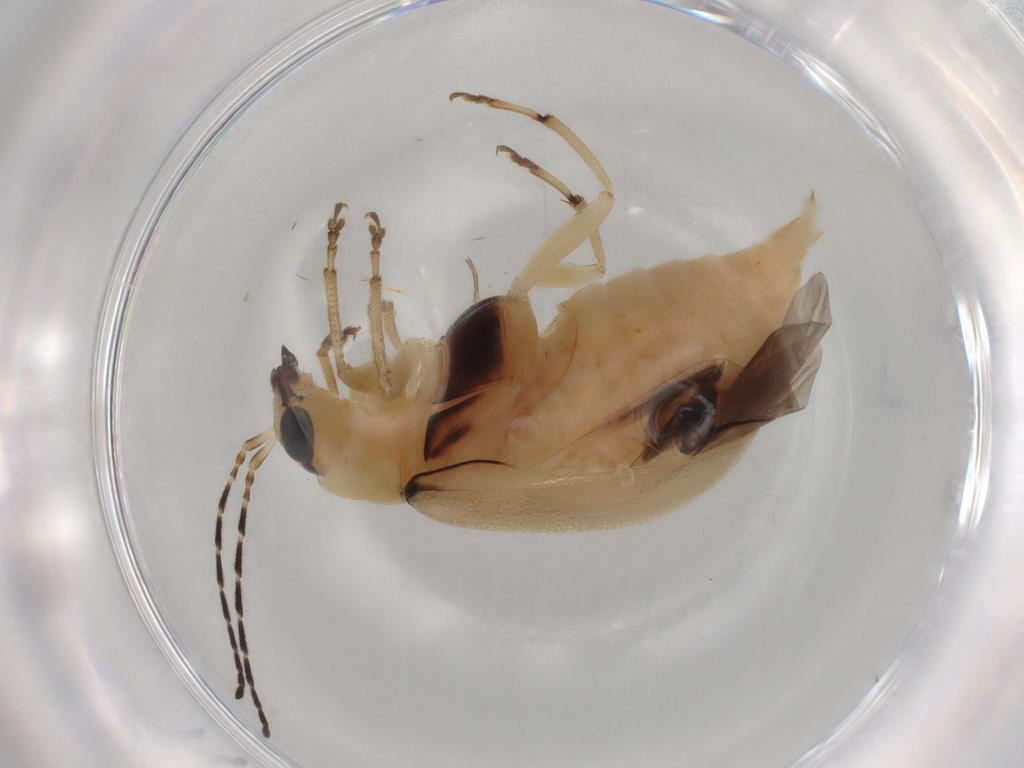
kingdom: Animalia
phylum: Arthropoda
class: Insecta
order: Coleoptera
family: Chrysomelidae
